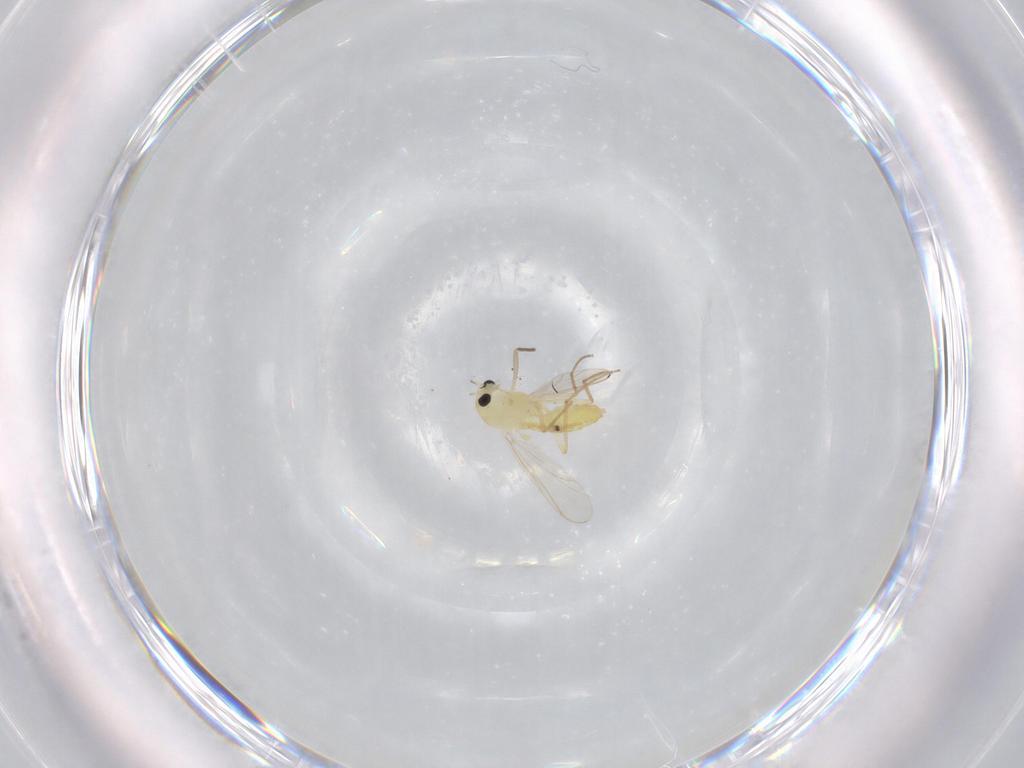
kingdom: Animalia
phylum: Arthropoda
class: Insecta
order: Diptera
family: Chironomidae
